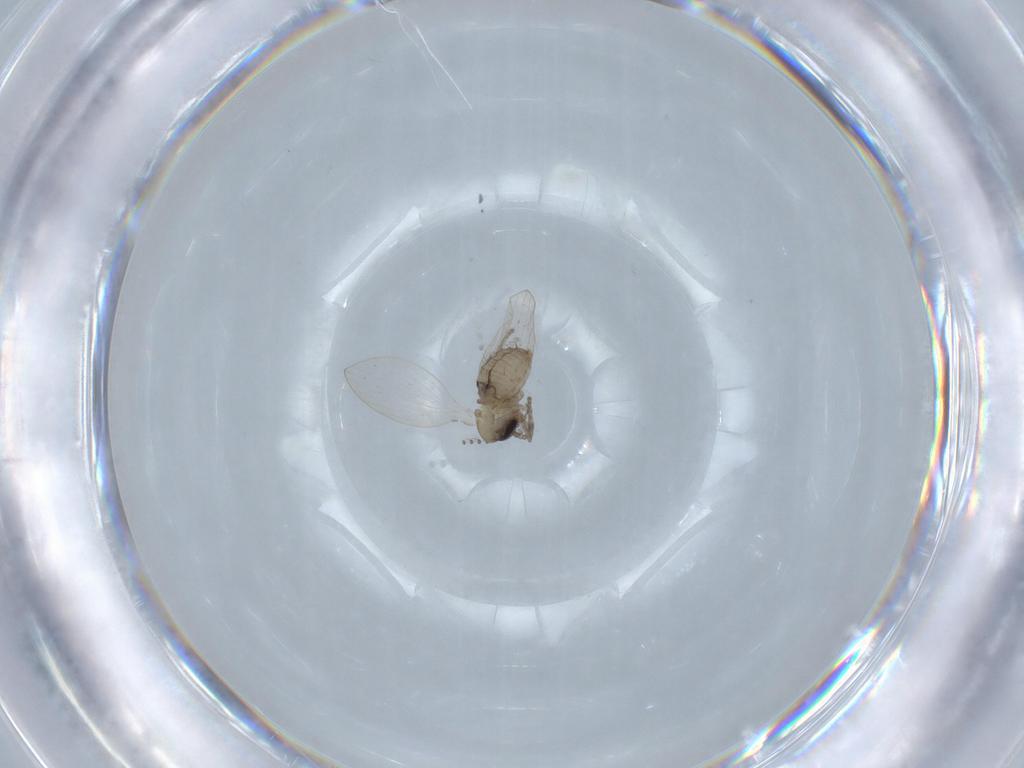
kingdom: Animalia
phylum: Arthropoda
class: Insecta
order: Diptera
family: Psychodidae
